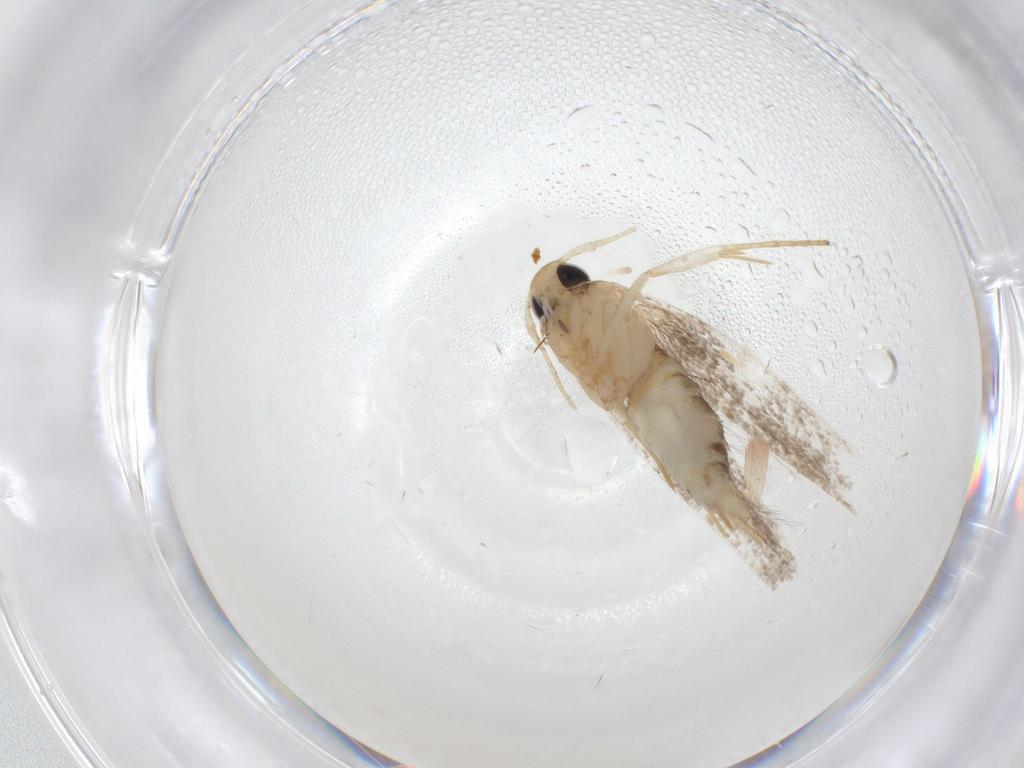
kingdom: Animalia
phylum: Arthropoda
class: Insecta
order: Lepidoptera
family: Cosmopterigidae
